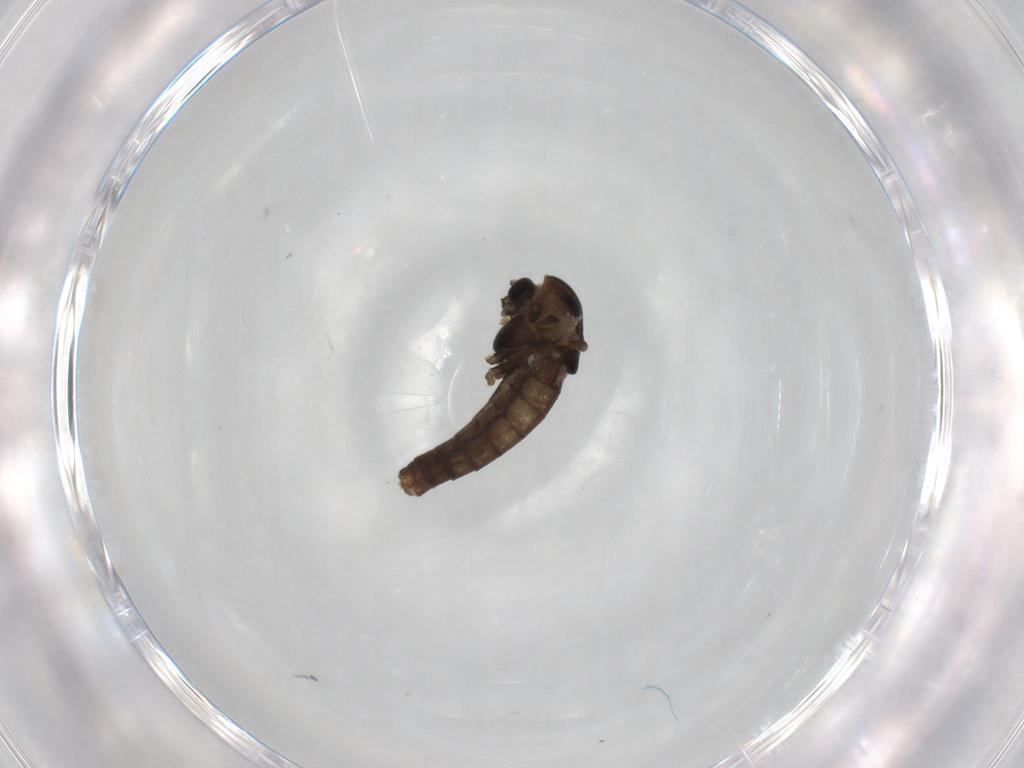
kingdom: Animalia
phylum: Arthropoda
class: Insecta
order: Diptera
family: Chironomidae
